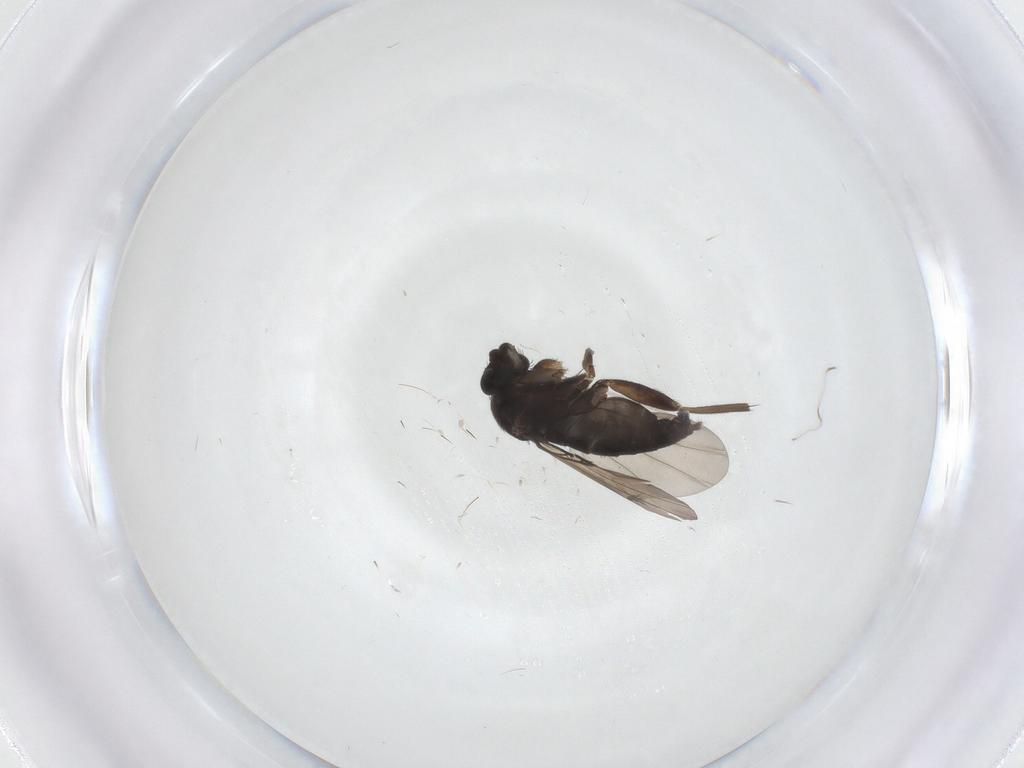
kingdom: Animalia
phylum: Arthropoda
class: Insecta
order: Diptera
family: Phoridae
